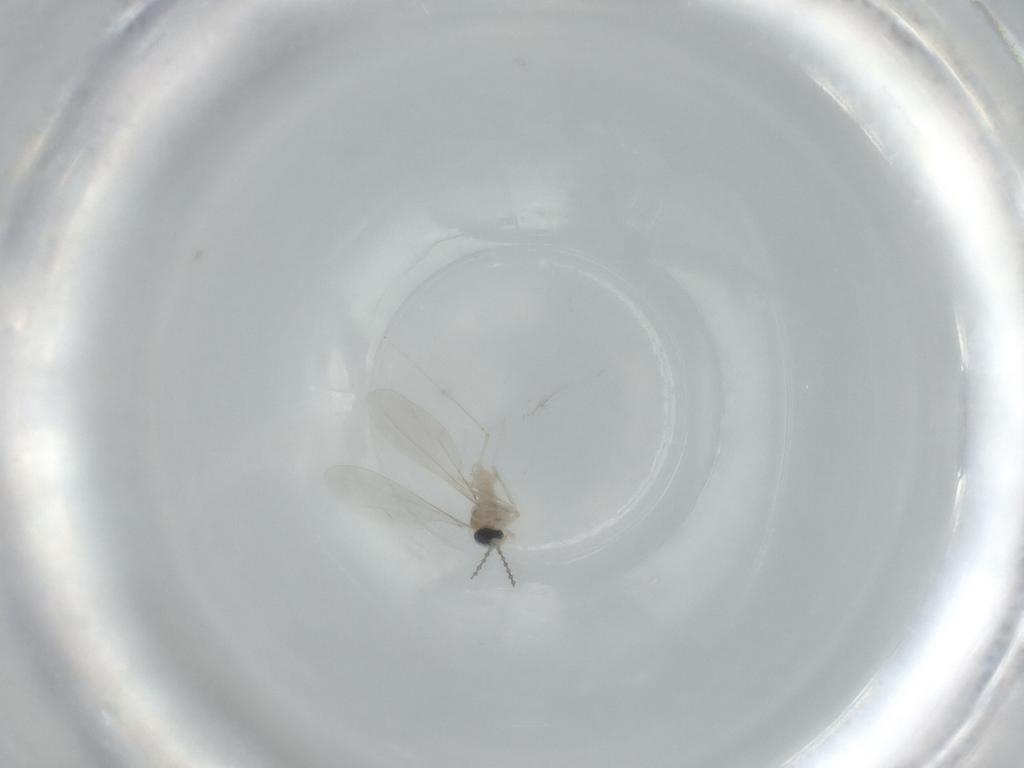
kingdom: Animalia
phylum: Arthropoda
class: Insecta
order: Diptera
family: Cecidomyiidae
